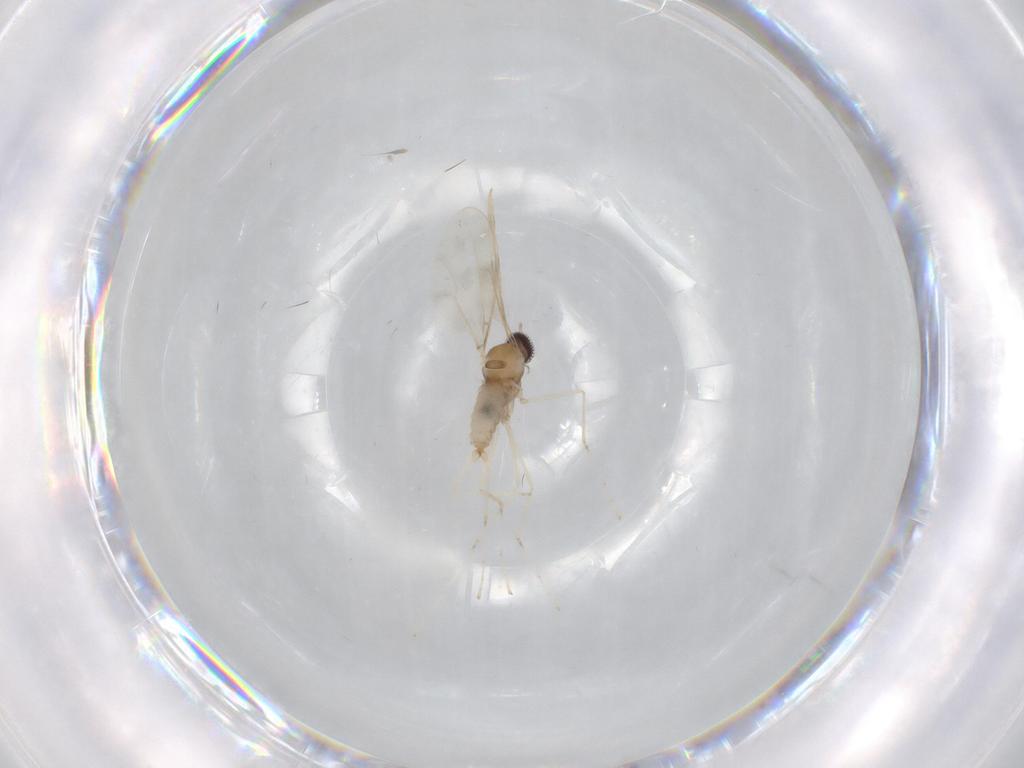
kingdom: Animalia
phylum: Arthropoda
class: Insecta
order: Diptera
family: Cecidomyiidae
